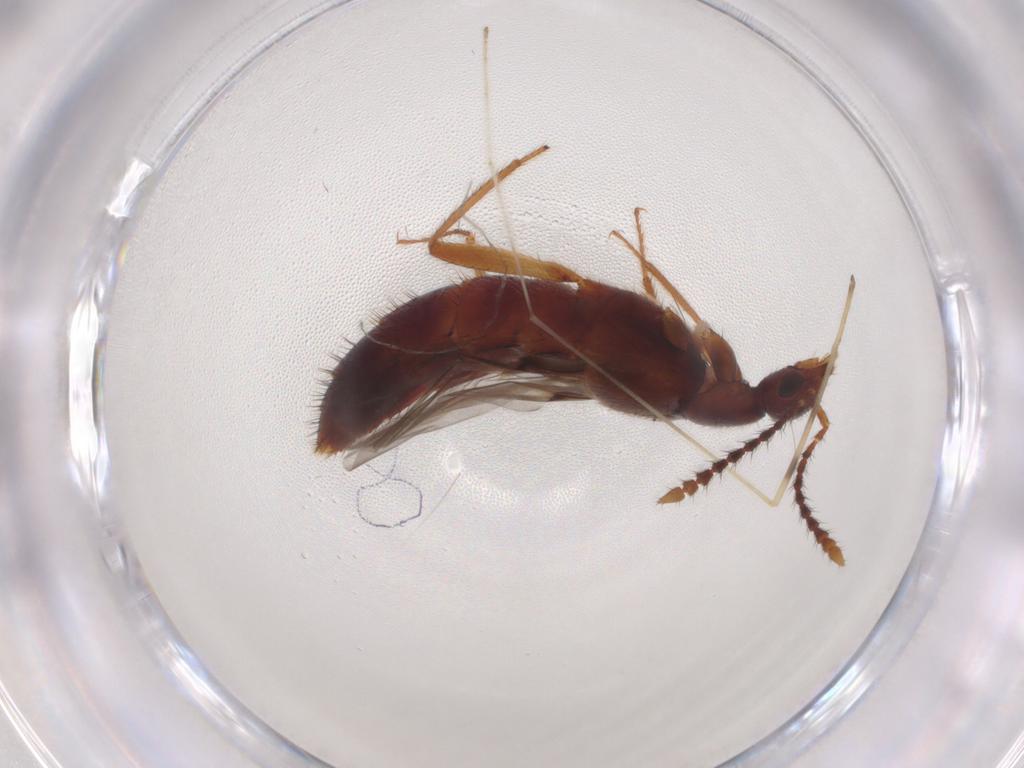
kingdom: Animalia
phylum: Arthropoda
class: Insecta
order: Coleoptera
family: Staphylinidae
